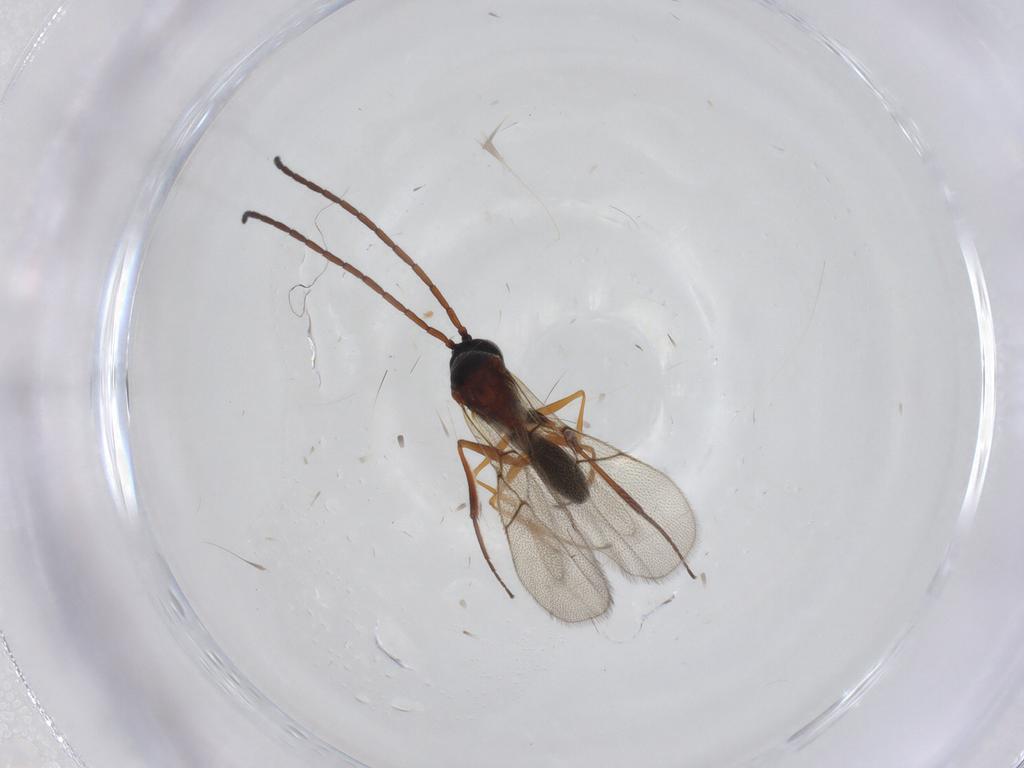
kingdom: Animalia
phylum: Arthropoda
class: Insecta
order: Hymenoptera
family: Figitidae
